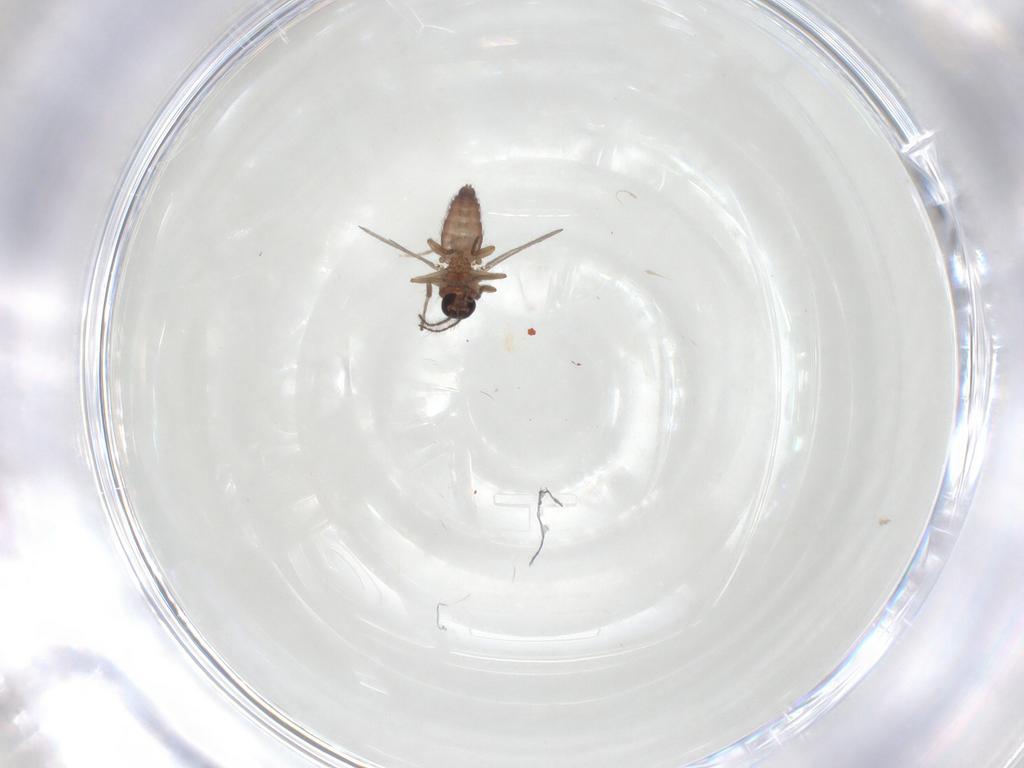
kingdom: Animalia
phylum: Arthropoda
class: Insecta
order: Diptera
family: Ceratopogonidae
